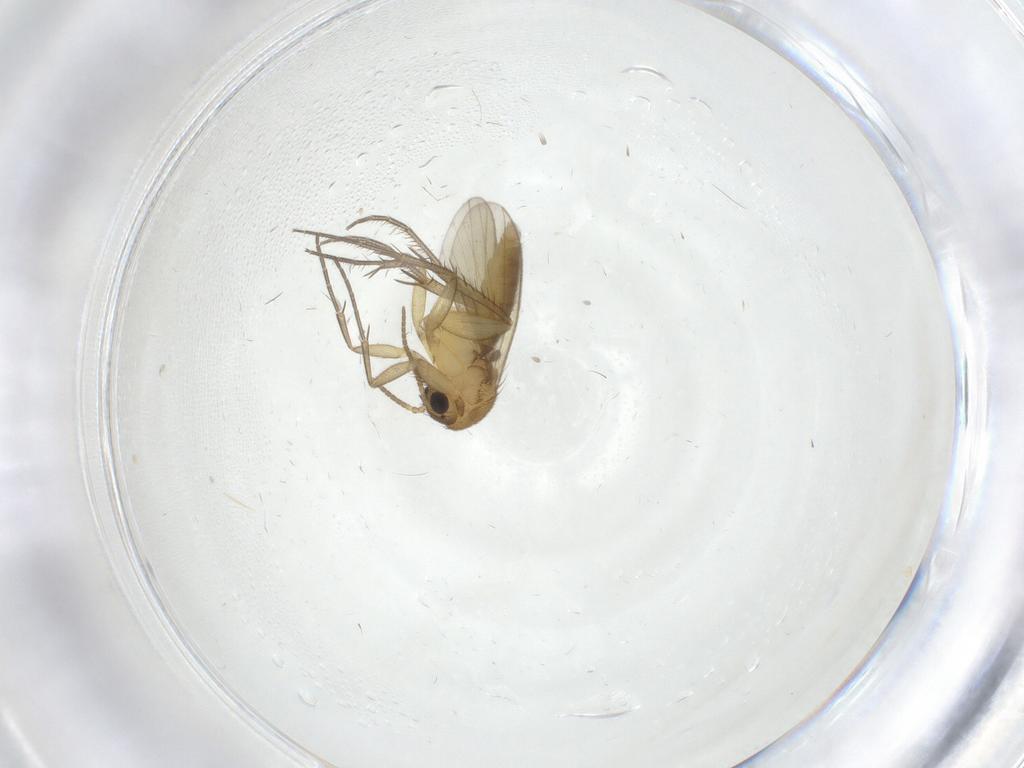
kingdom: Animalia
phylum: Arthropoda
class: Insecta
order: Diptera
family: Mycetophilidae
